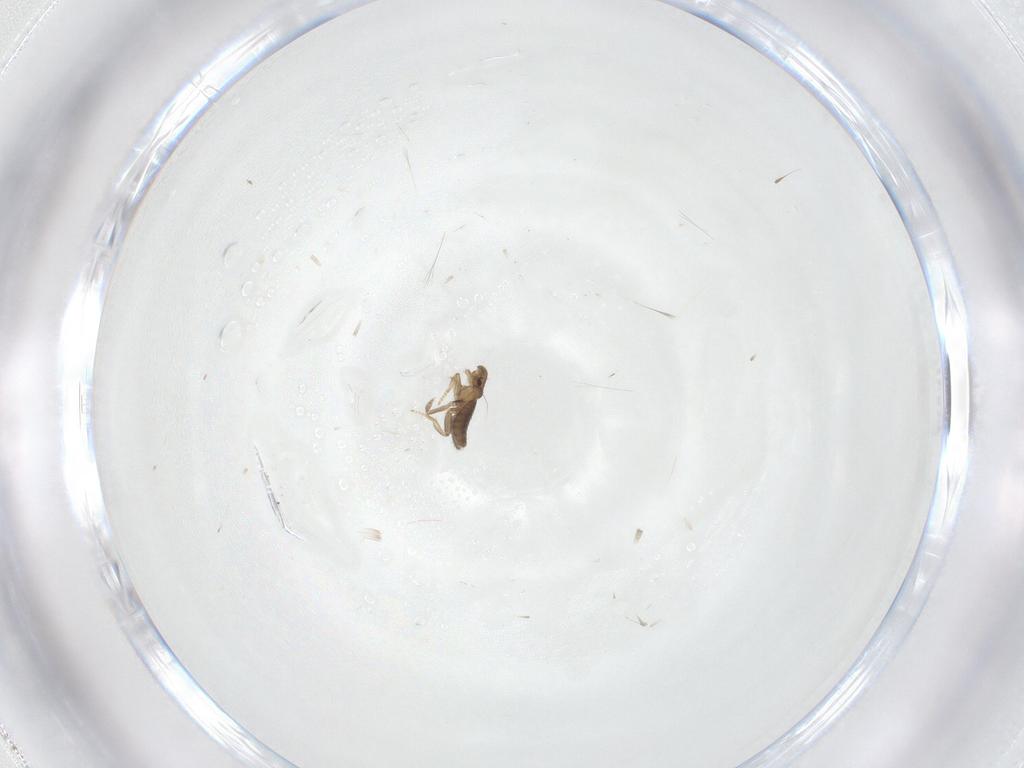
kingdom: Animalia
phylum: Arthropoda
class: Insecta
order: Diptera
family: Phoridae
